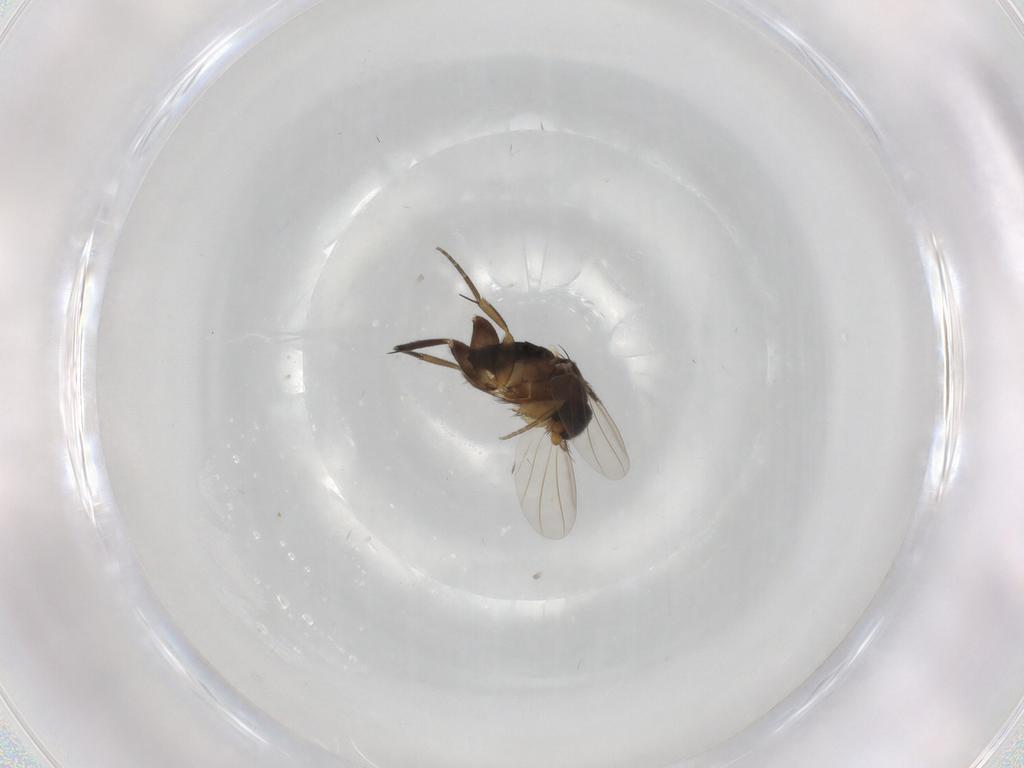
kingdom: Animalia
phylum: Arthropoda
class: Insecta
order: Diptera
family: Phoridae
